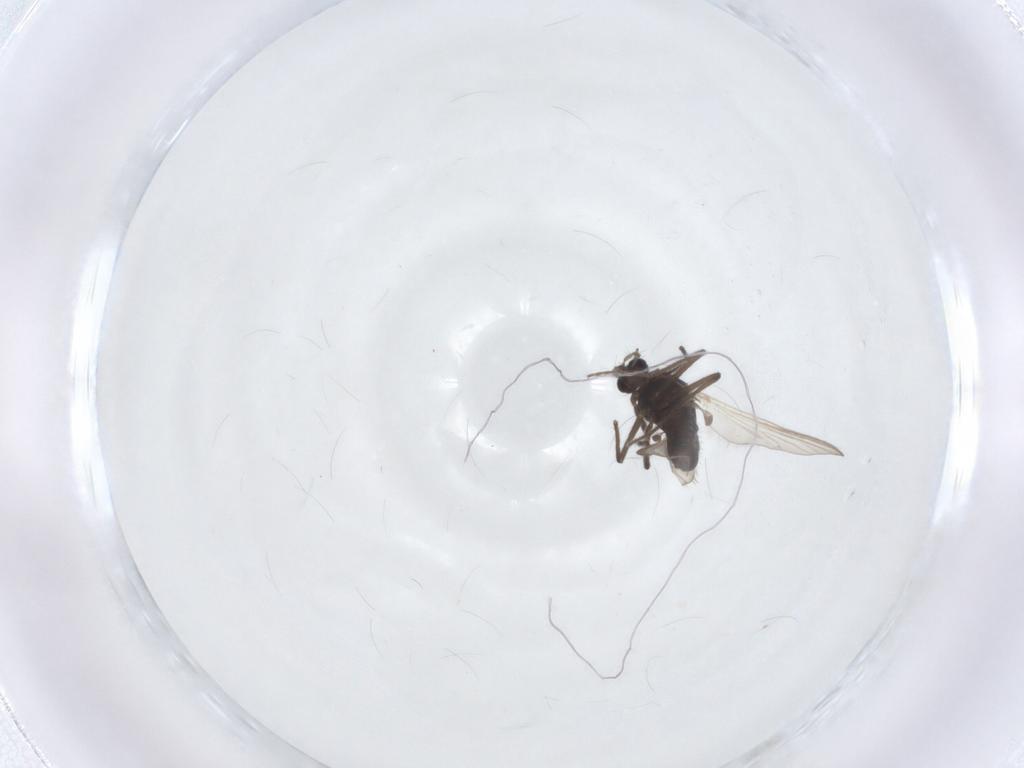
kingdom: Animalia
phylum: Arthropoda
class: Insecta
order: Diptera
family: Chironomidae
